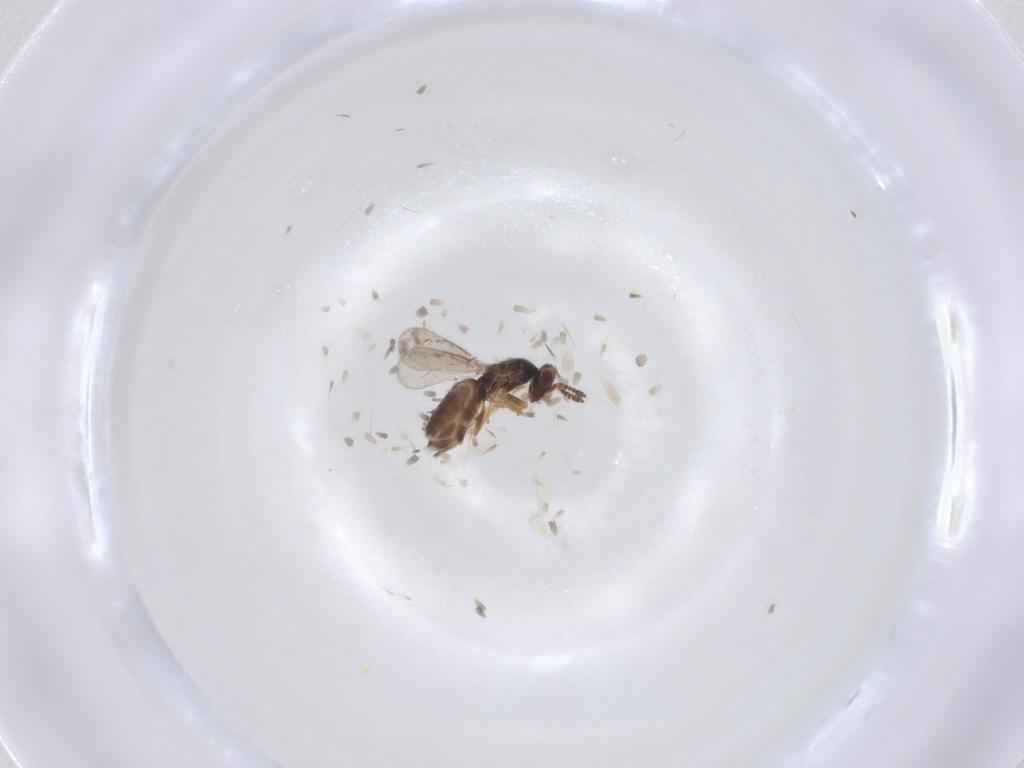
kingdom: Animalia
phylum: Arthropoda
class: Insecta
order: Hymenoptera
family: Eulophidae
